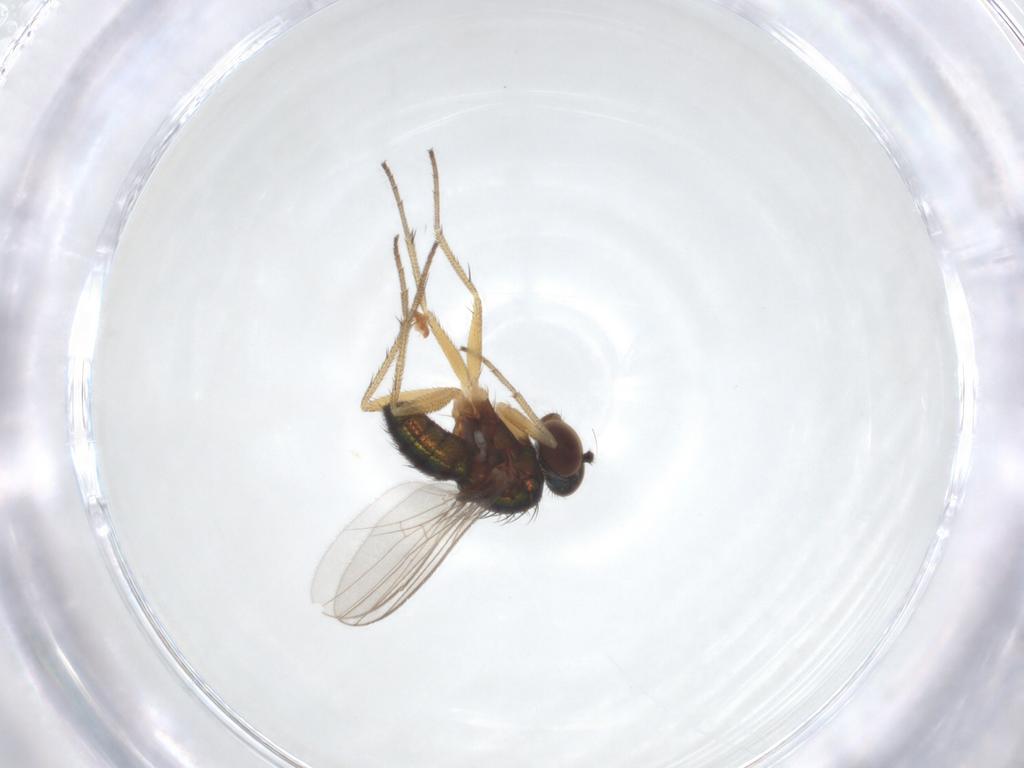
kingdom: Animalia
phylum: Arthropoda
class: Insecta
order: Diptera
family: Chironomidae
